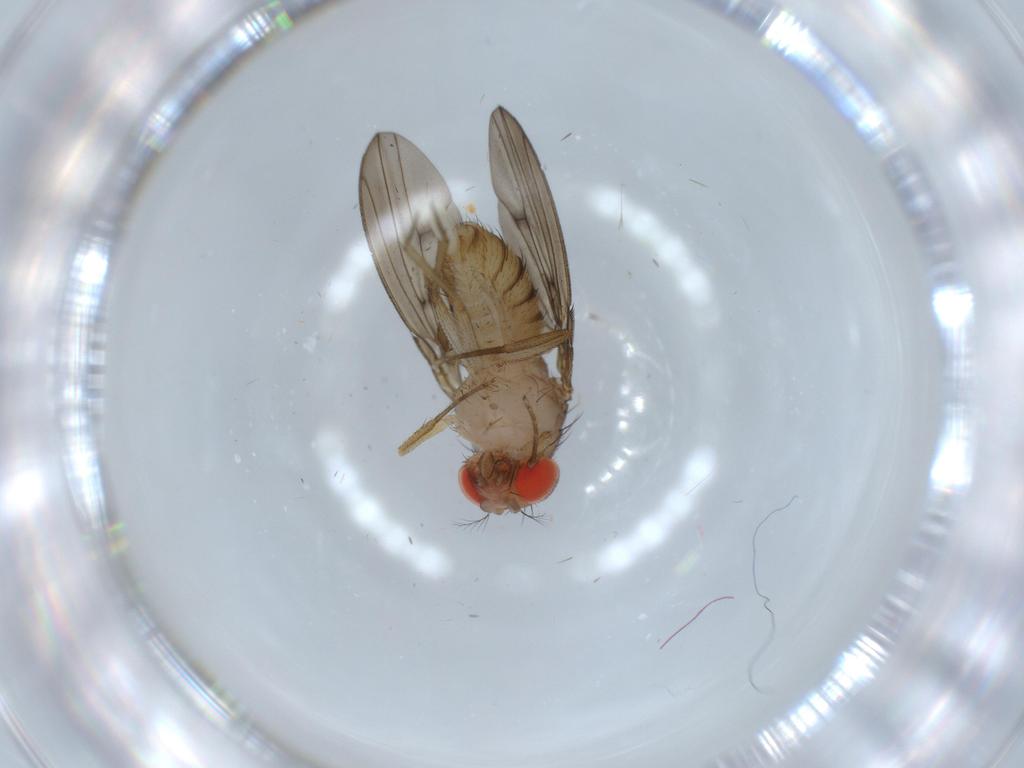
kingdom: Animalia
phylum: Arthropoda
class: Insecta
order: Diptera
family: Drosophilidae
